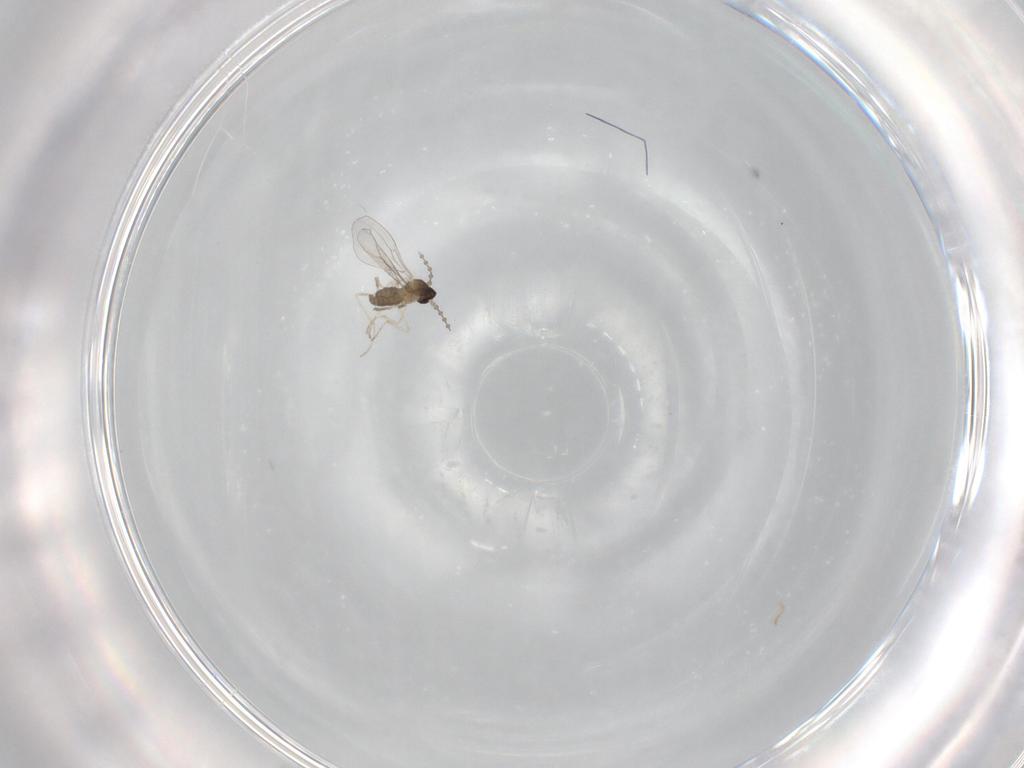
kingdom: Animalia
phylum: Arthropoda
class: Insecta
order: Diptera
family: Cecidomyiidae
